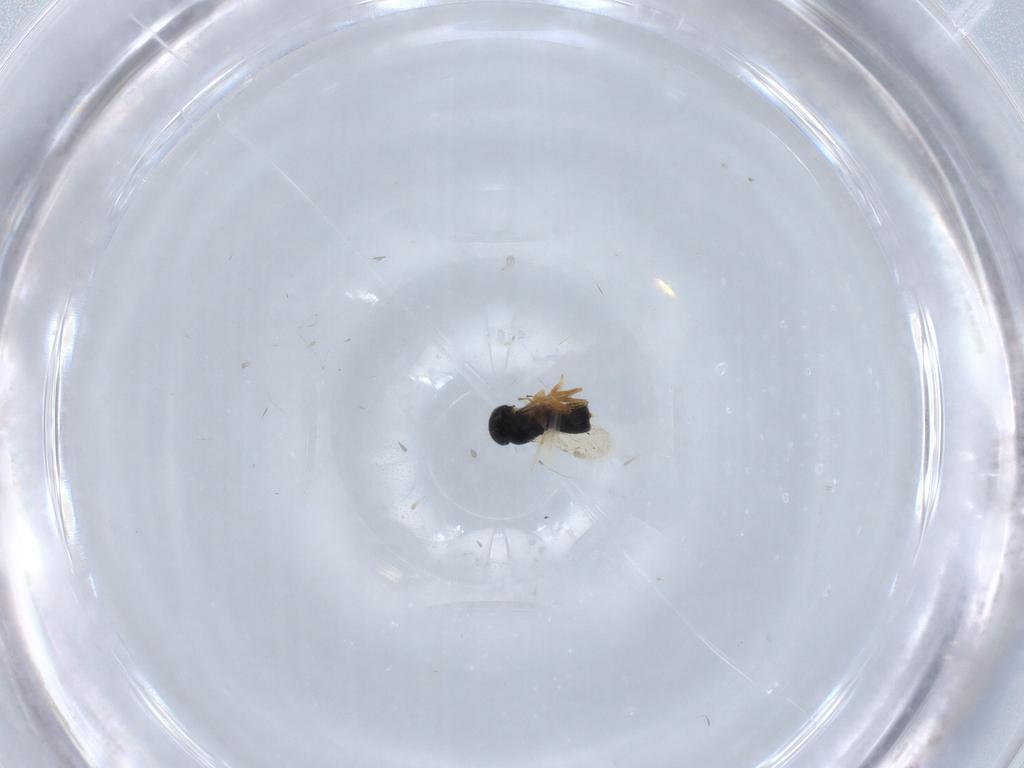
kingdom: Animalia
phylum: Arthropoda
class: Insecta
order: Hymenoptera
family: Scelionidae
